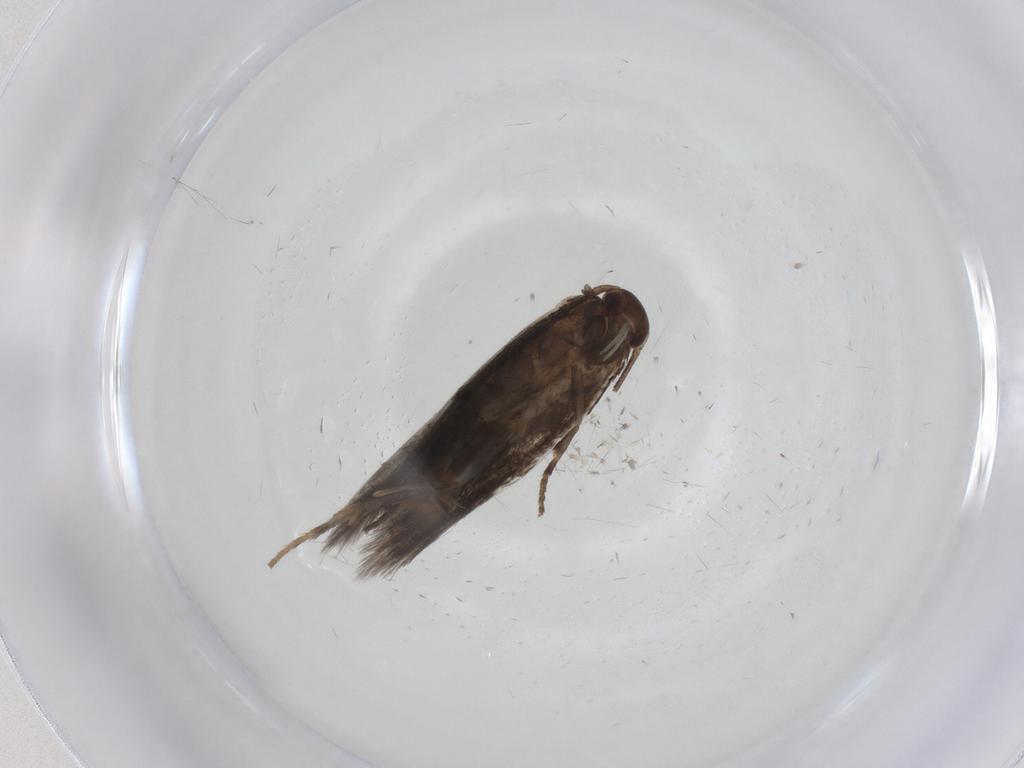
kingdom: Animalia
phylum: Arthropoda
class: Insecta
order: Lepidoptera
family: Elachistidae
